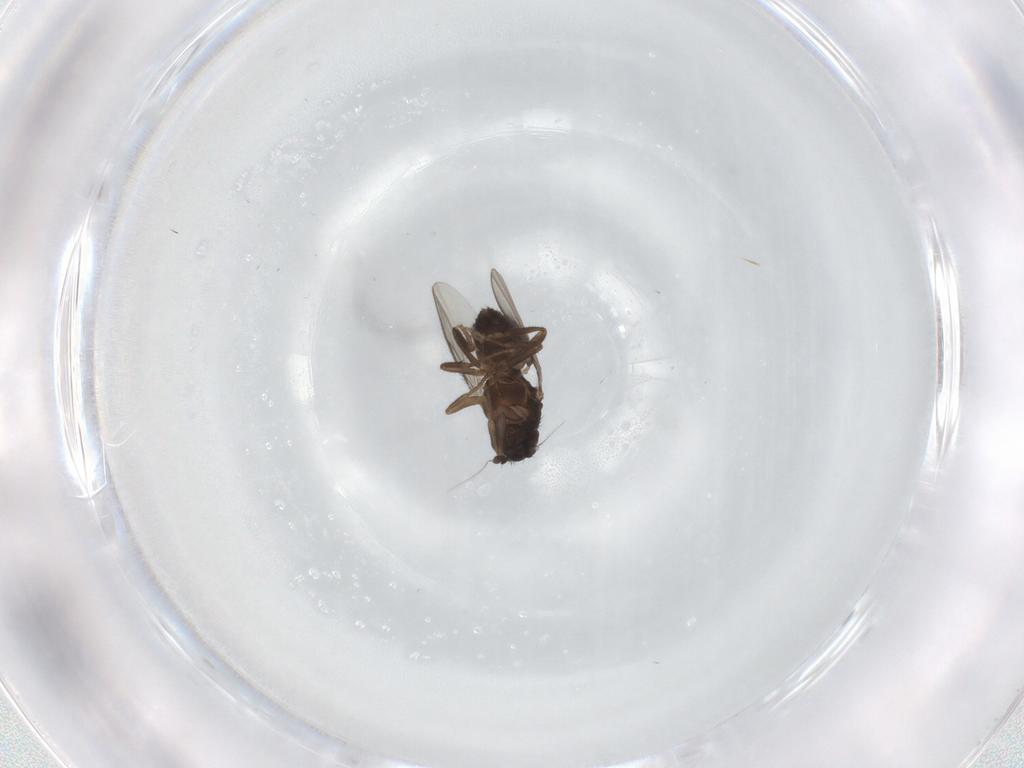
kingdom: Animalia
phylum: Arthropoda
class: Insecta
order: Diptera
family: Sphaeroceridae
